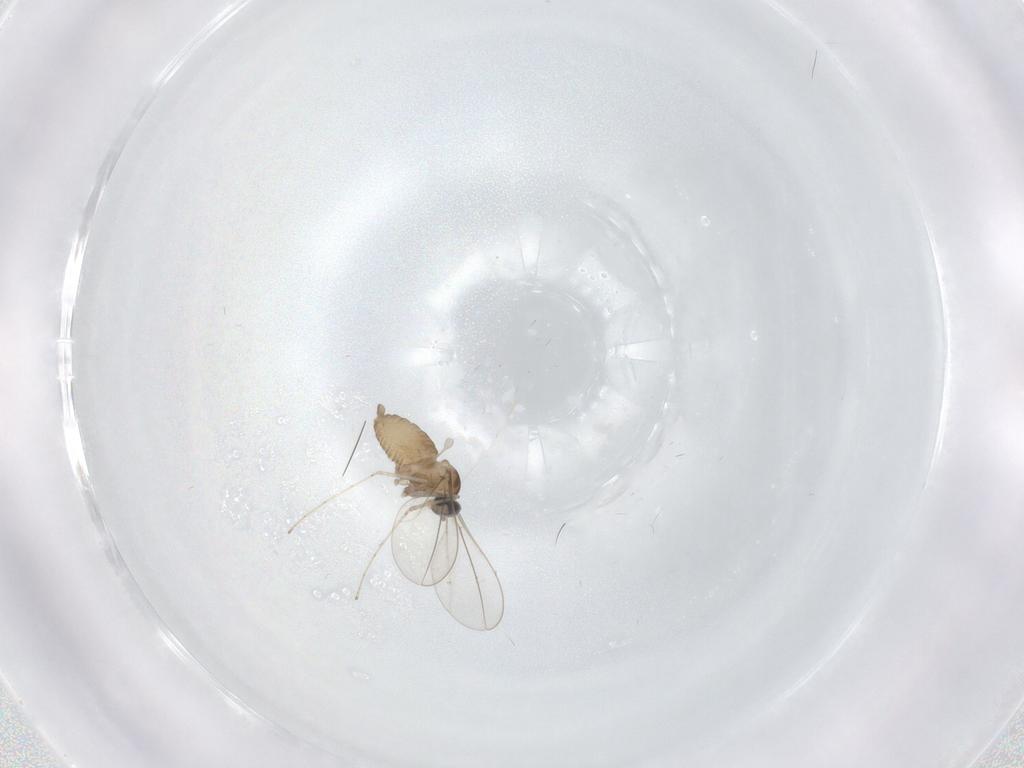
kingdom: Animalia
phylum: Arthropoda
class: Insecta
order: Diptera
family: Cecidomyiidae
